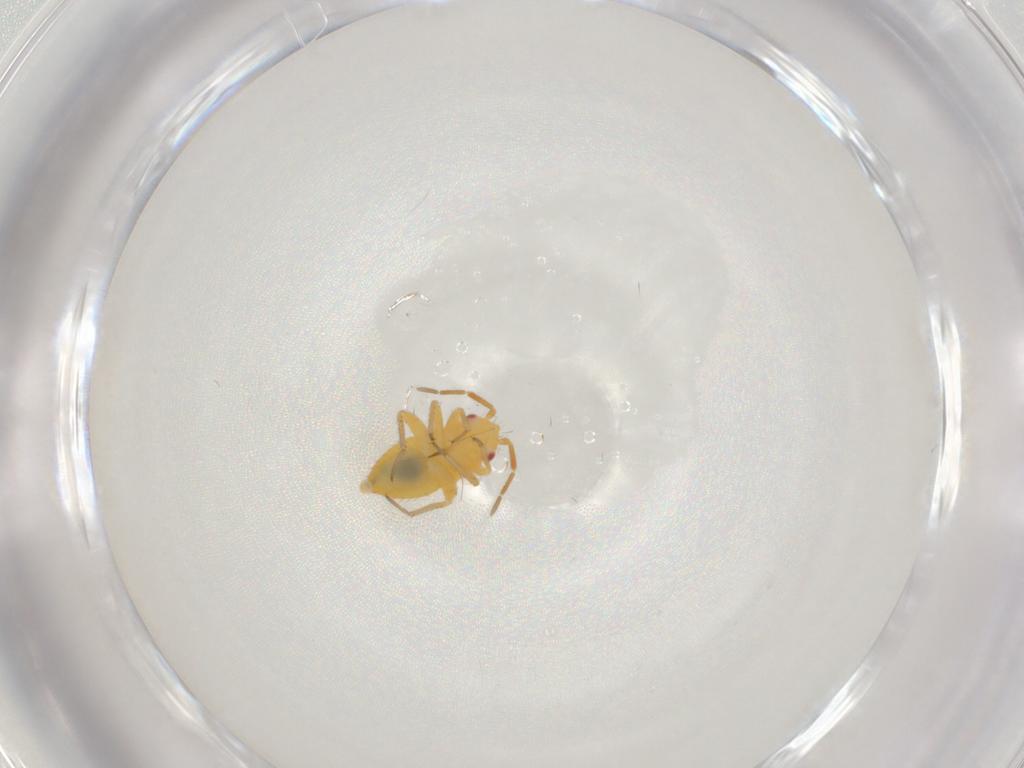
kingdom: Animalia
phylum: Arthropoda
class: Insecta
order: Hemiptera
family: Miridae
